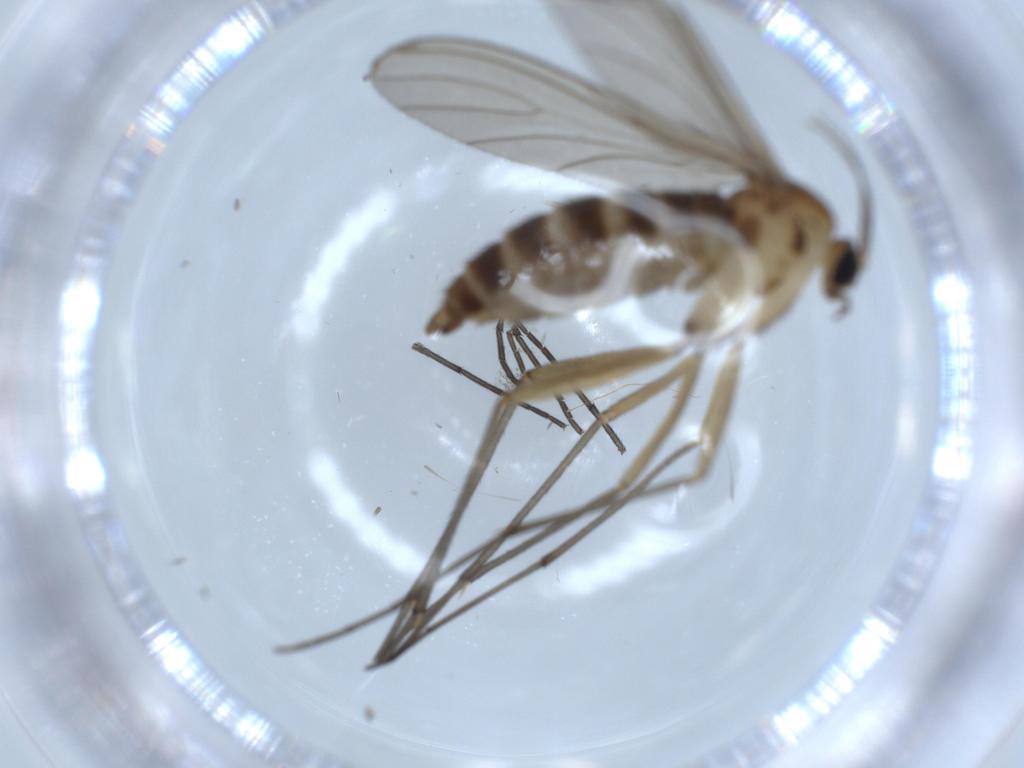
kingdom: Animalia
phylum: Arthropoda
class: Insecta
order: Diptera
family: Sciaridae
